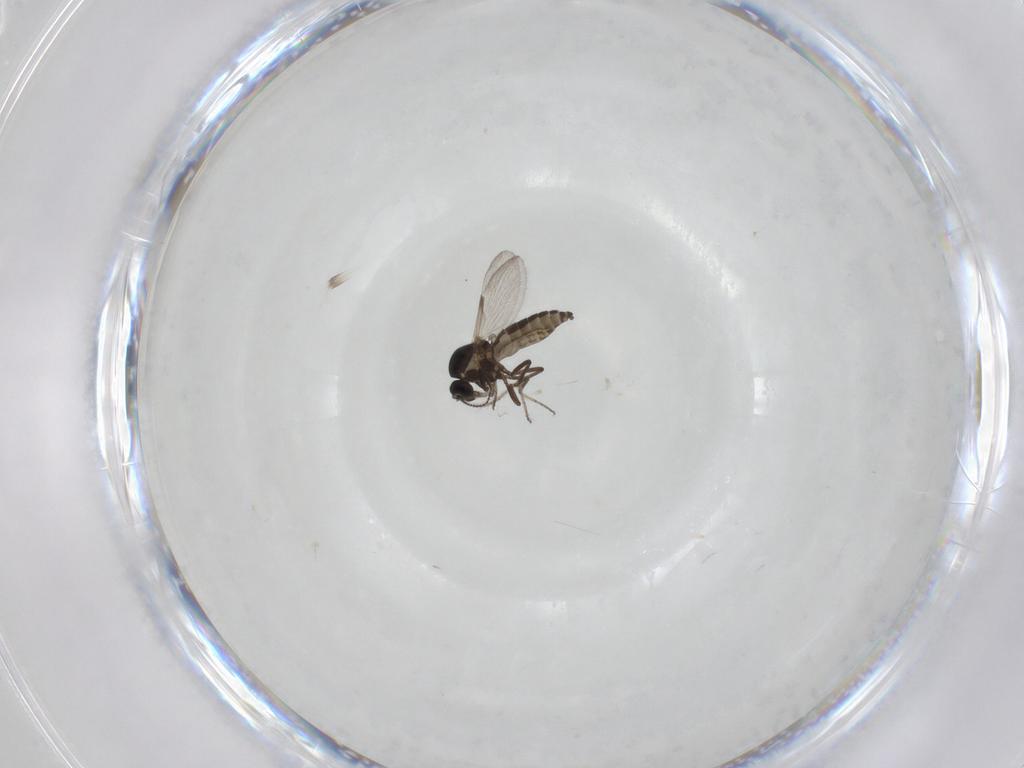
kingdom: Animalia
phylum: Arthropoda
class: Insecta
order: Diptera
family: Ceratopogonidae
